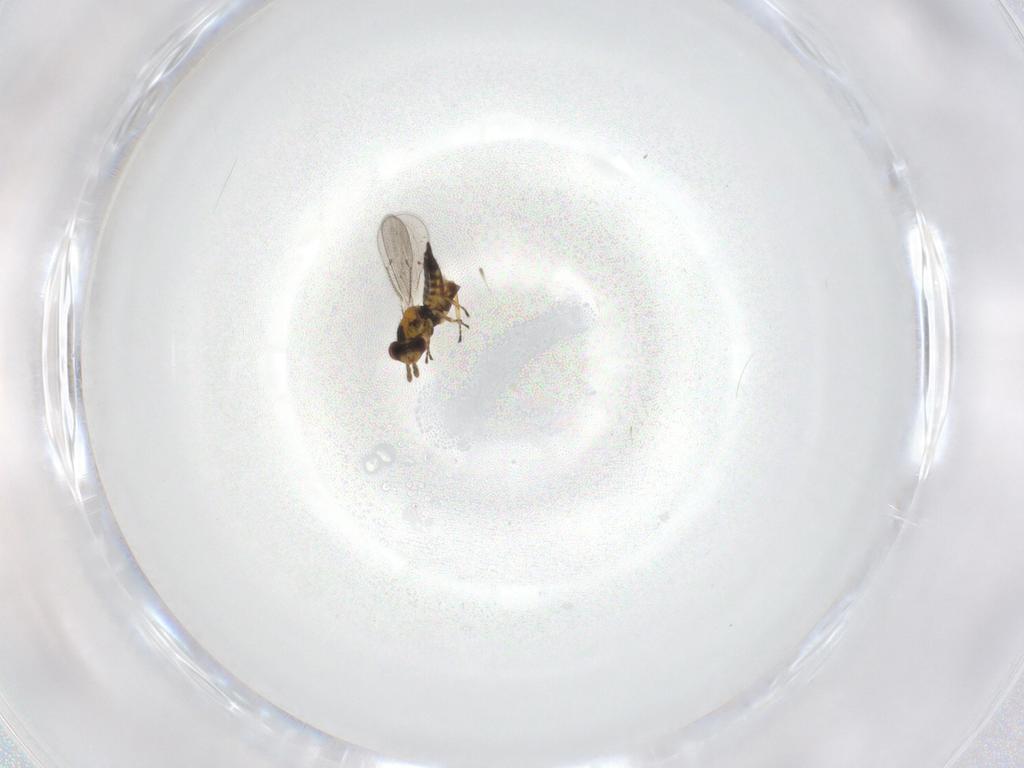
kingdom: Animalia
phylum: Arthropoda
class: Insecta
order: Hymenoptera
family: Eulophidae
